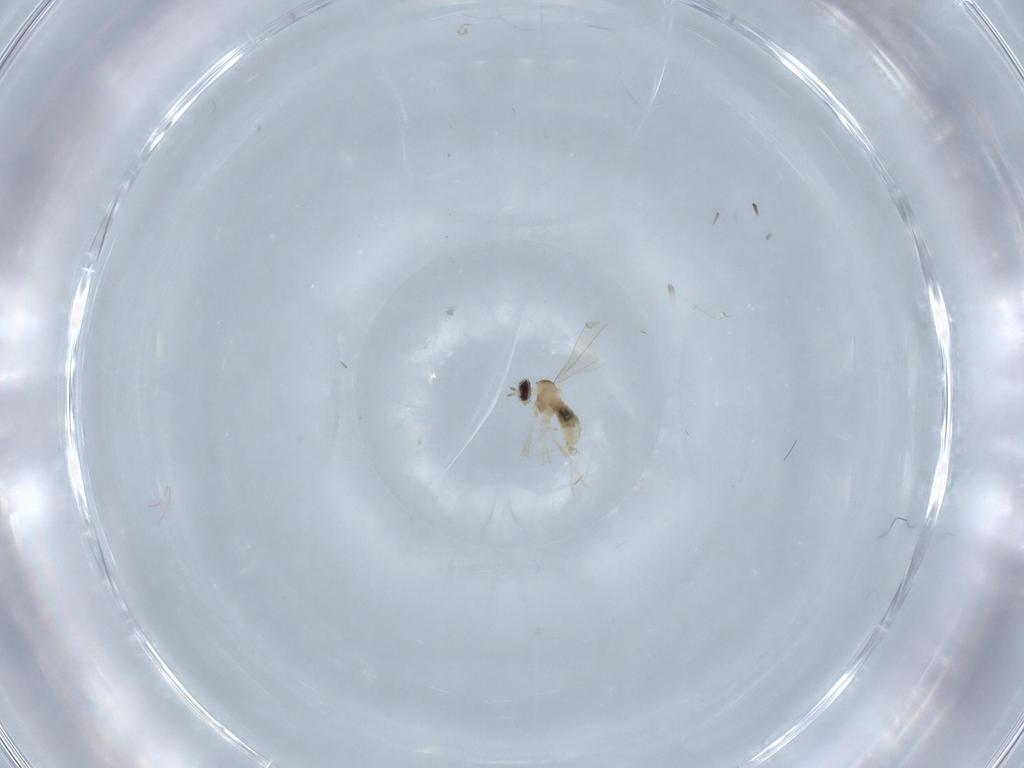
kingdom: Animalia
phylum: Arthropoda
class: Insecta
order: Diptera
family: Cecidomyiidae
